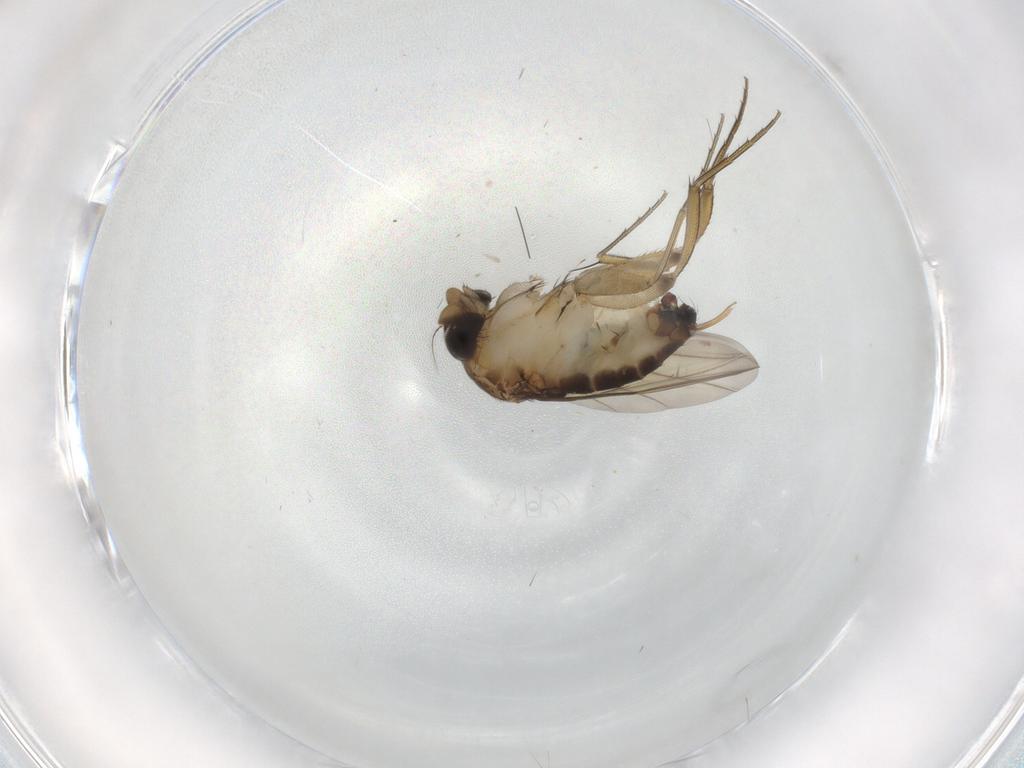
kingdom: Animalia
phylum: Arthropoda
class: Insecta
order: Diptera
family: Phoridae
